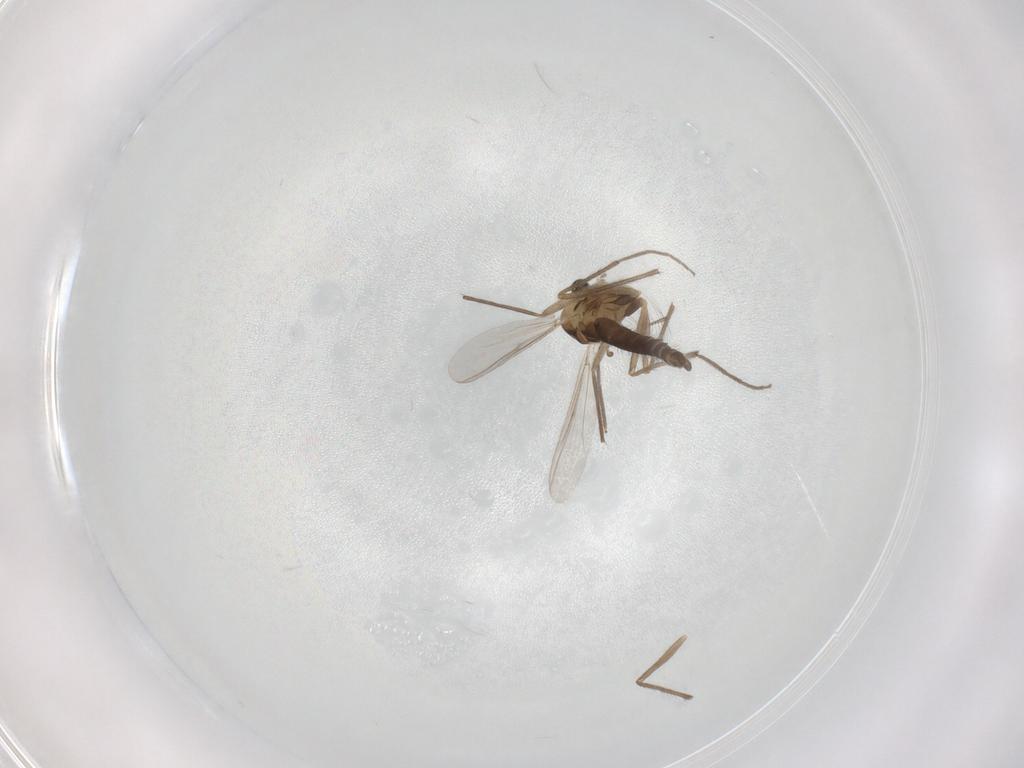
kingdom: Animalia
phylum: Arthropoda
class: Insecta
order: Diptera
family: Chironomidae
